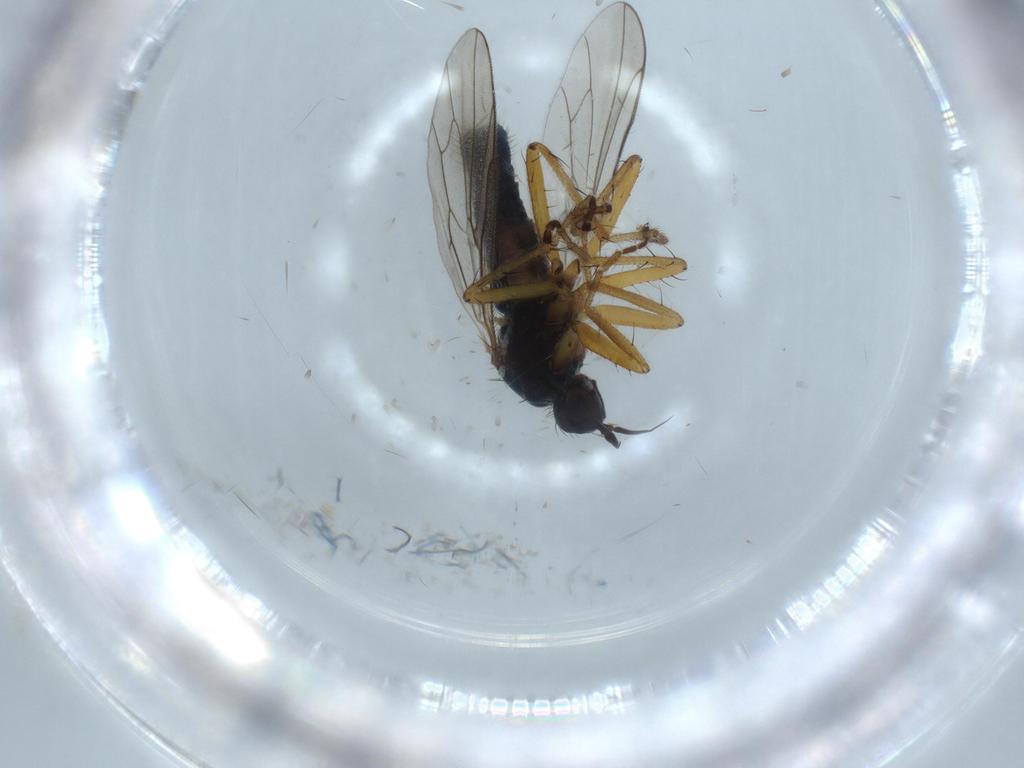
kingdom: Animalia
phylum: Arthropoda
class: Insecta
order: Diptera
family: Hybotidae
